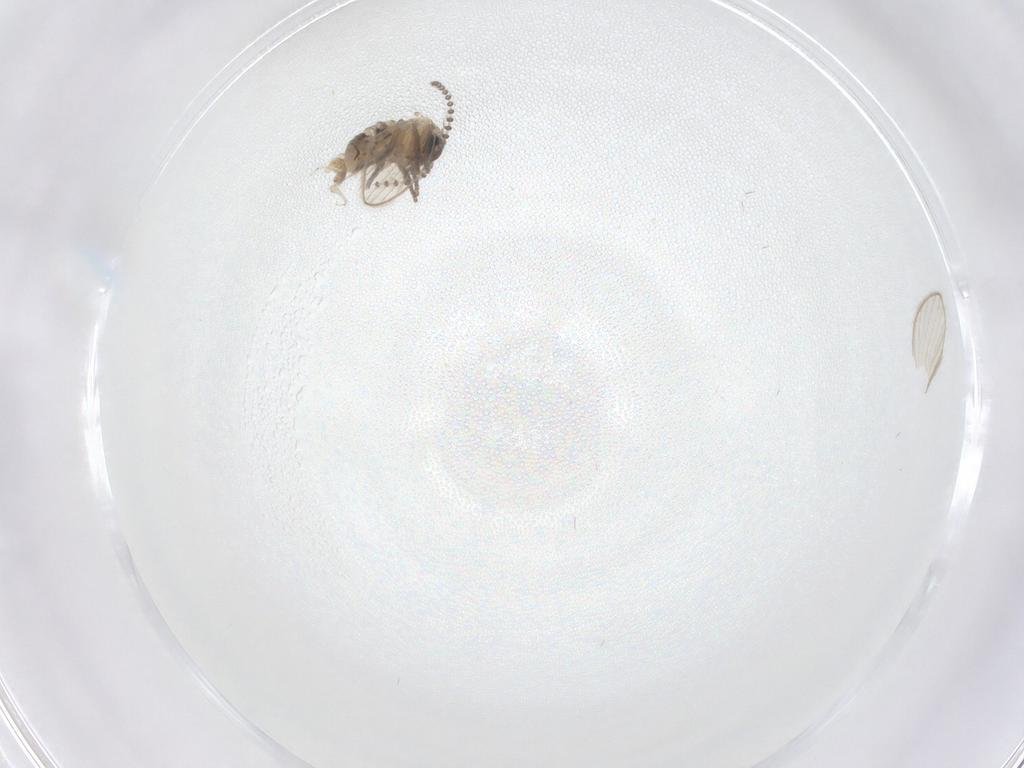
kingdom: Animalia
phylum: Arthropoda
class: Insecta
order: Diptera
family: Psychodidae
